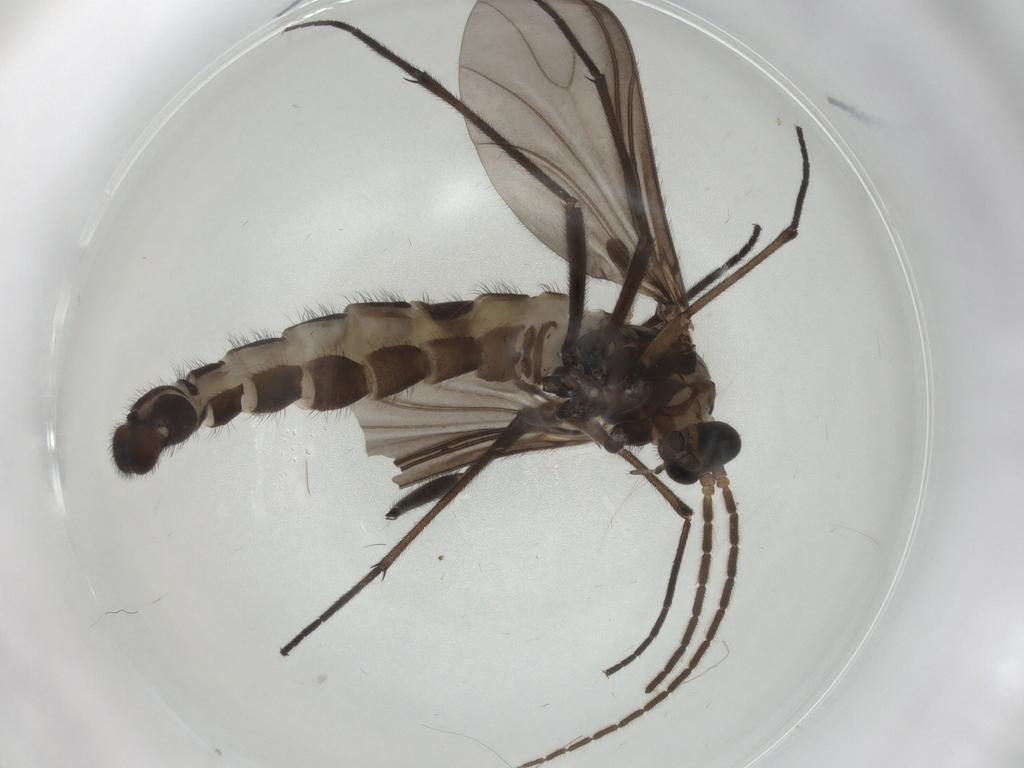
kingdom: Animalia
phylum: Arthropoda
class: Insecta
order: Diptera
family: Sciaridae
